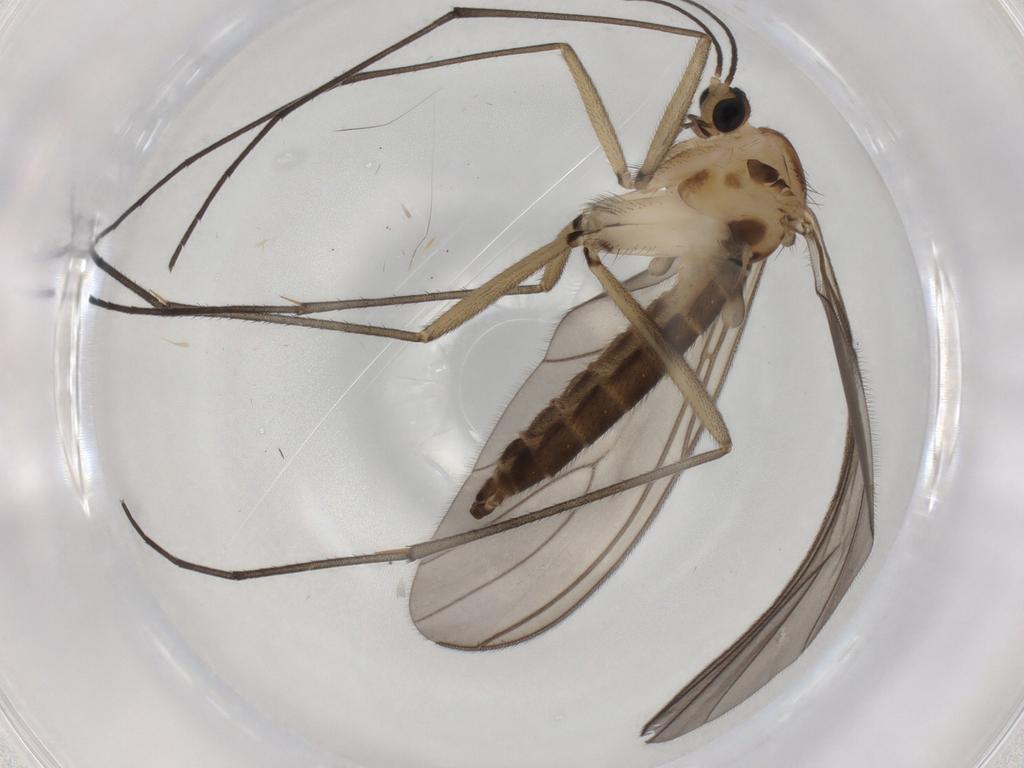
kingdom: Animalia
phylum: Arthropoda
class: Insecta
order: Diptera
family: Sciaridae
